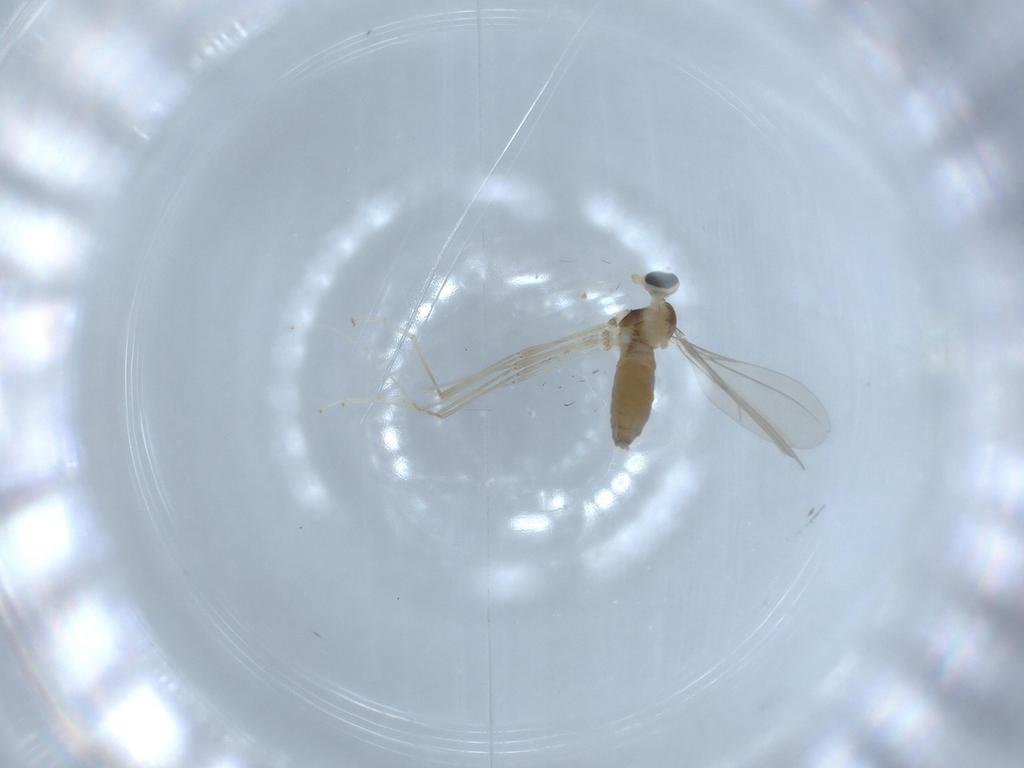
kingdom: Animalia
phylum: Arthropoda
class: Insecta
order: Diptera
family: Cecidomyiidae
